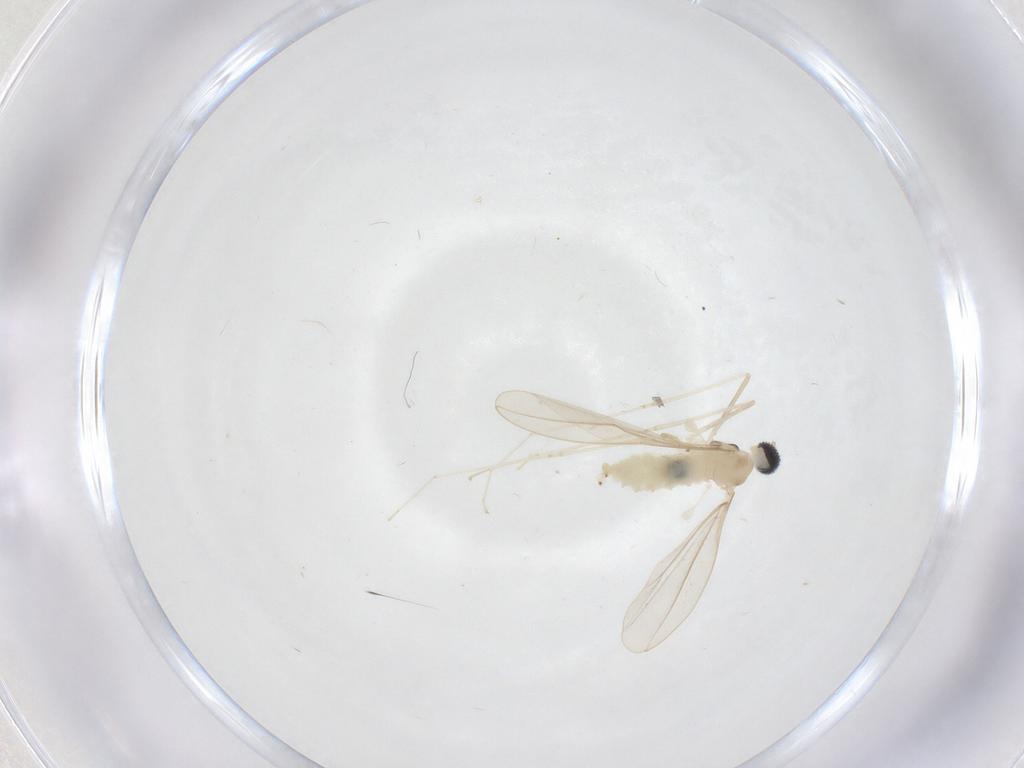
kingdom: Animalia
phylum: Arthropoda
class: Insecta
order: Diptera
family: Cecidomyiidae
